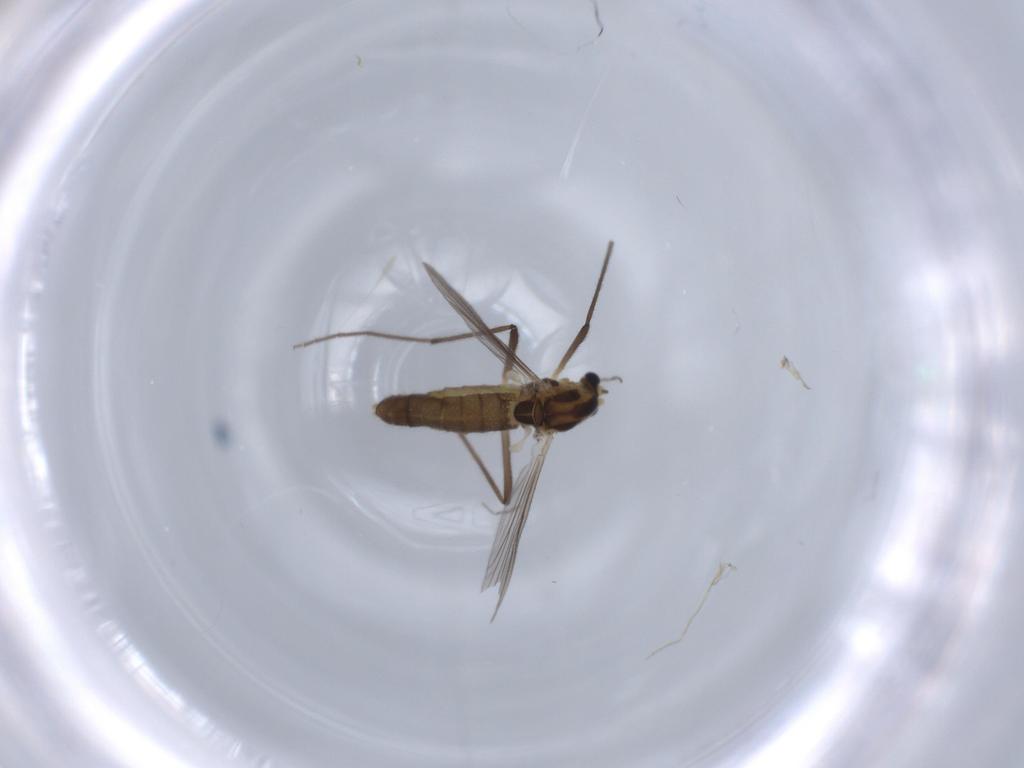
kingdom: Animalia
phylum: Arthropoda
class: Insecta
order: Diptera
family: Chironomidae
